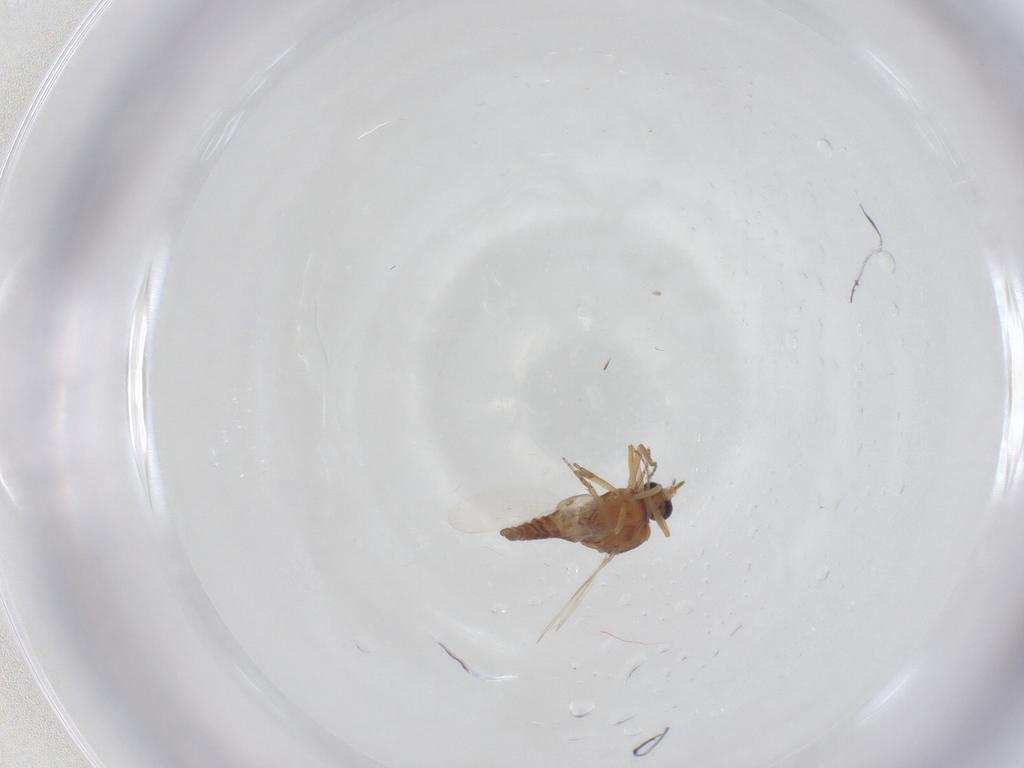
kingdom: Animalia
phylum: Arthropoda
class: Insecta
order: Diptera
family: Ceratopogonidae
